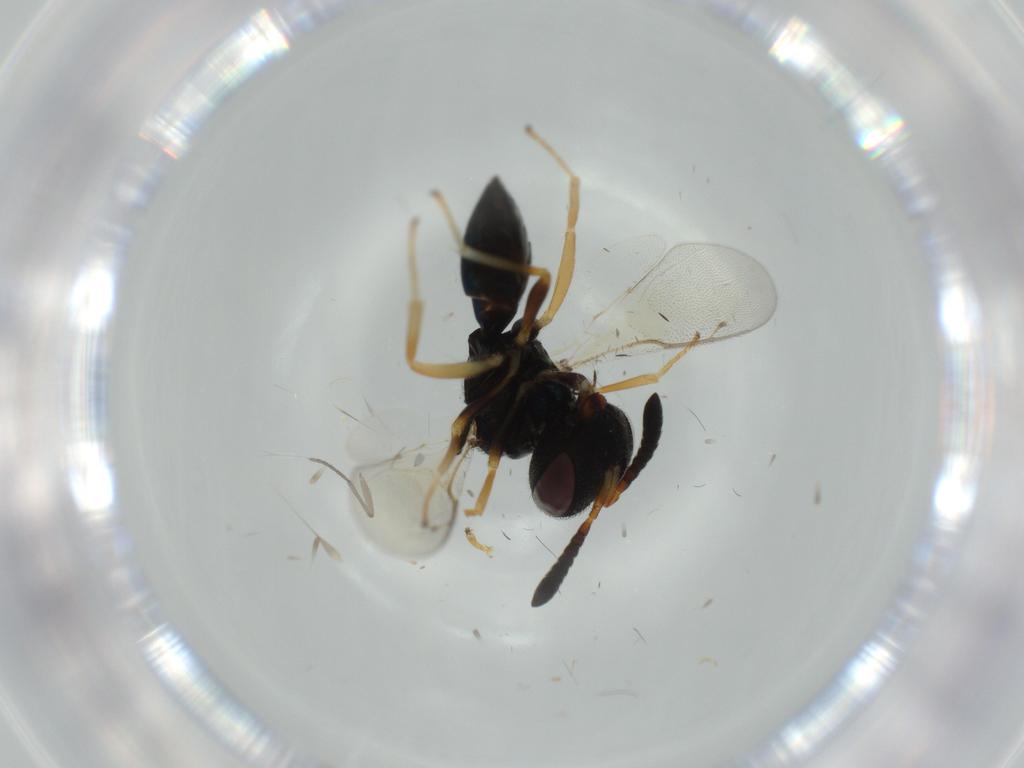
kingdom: Animalia
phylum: Arthropoda
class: Insecta
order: Hymenoptera
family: Pteromalidae
